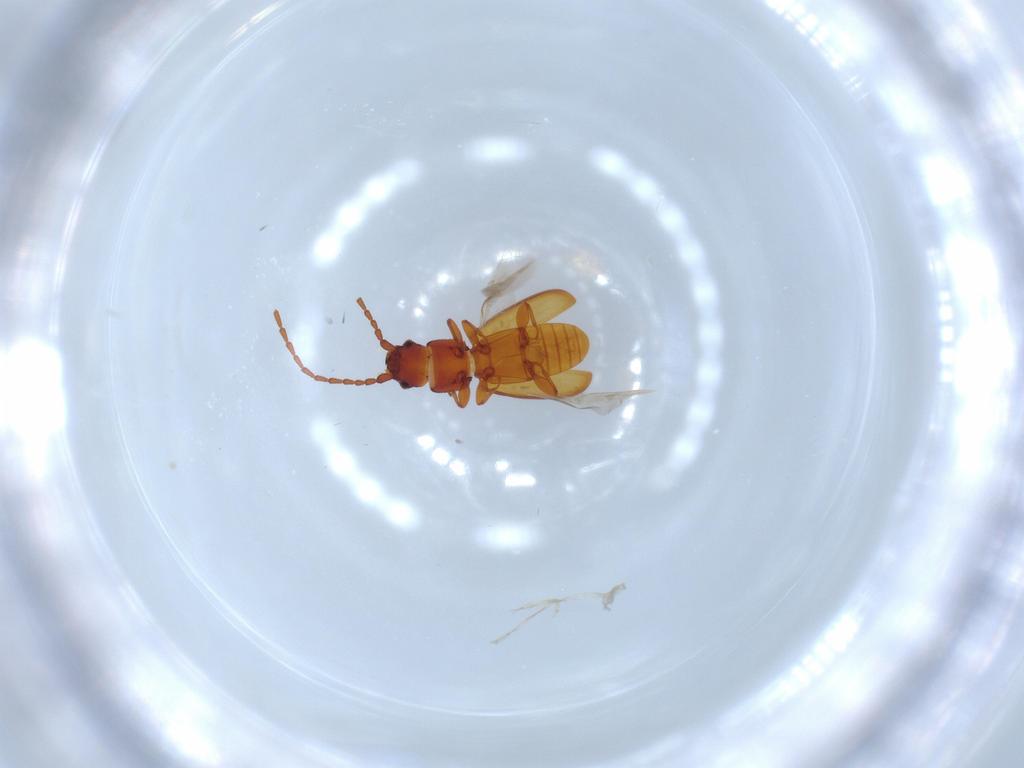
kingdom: Animalia
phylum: Arthropoda
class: Insecta
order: Coleoptera
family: Laemophloeidae
